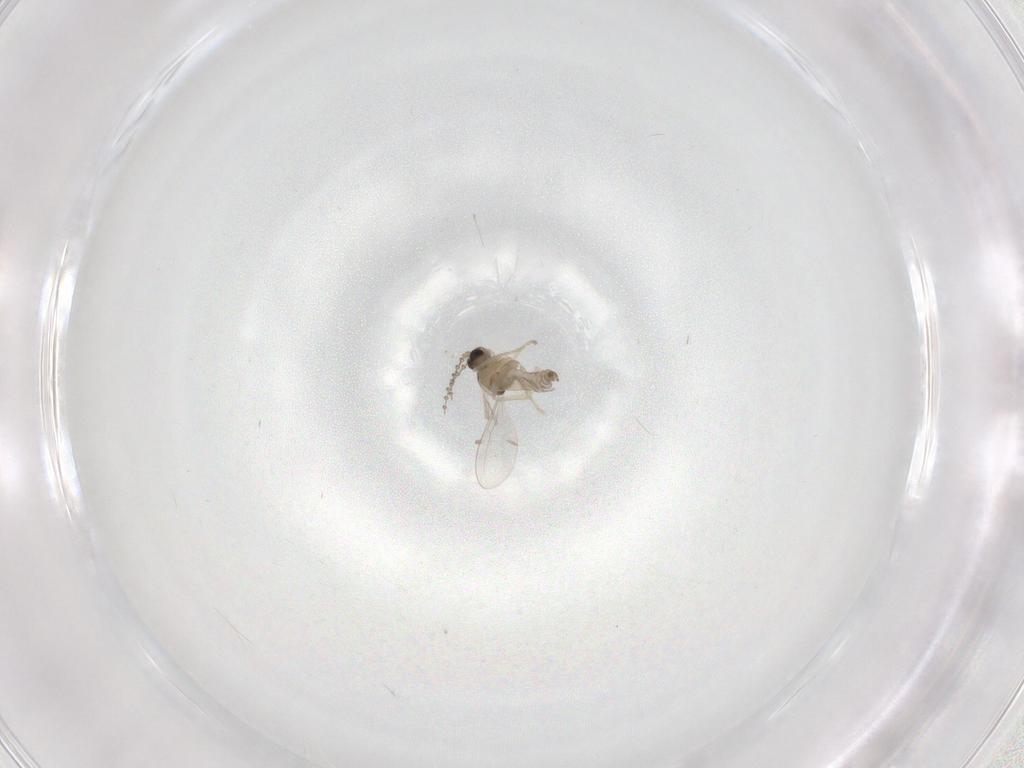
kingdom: Animalia
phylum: Arthropoda
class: Insecta
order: Diptera
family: Cecidomyiidae
